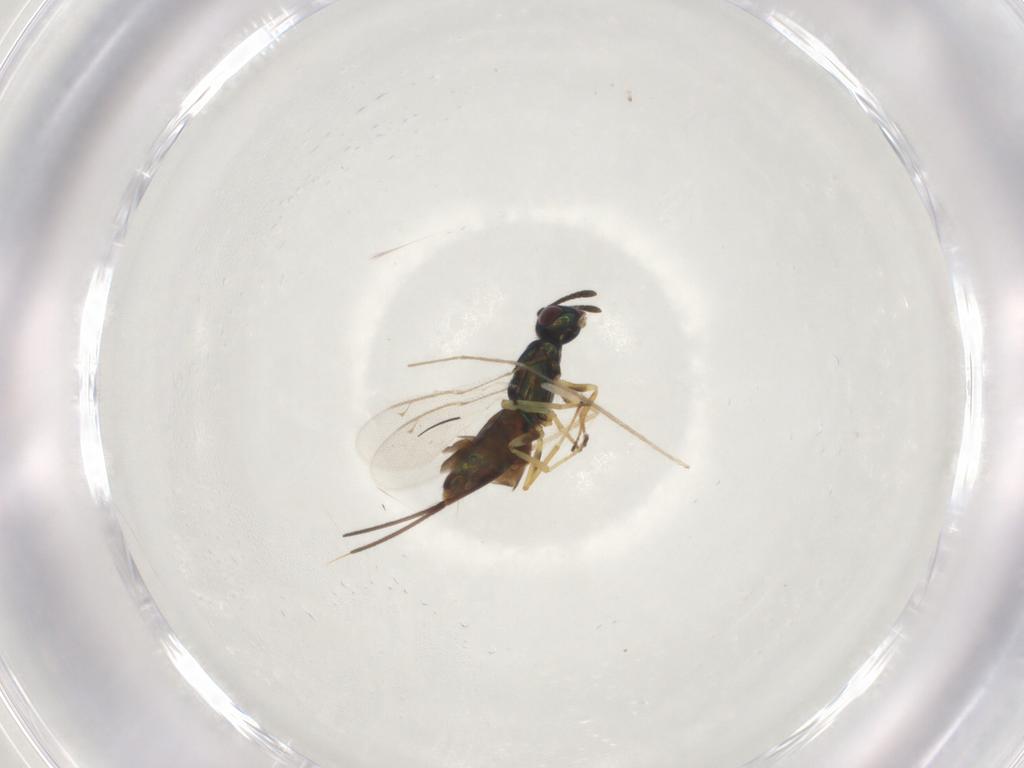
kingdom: Animalia
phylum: Arthropoda
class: Insecta
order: Hymenoptera
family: Eupelmidae
